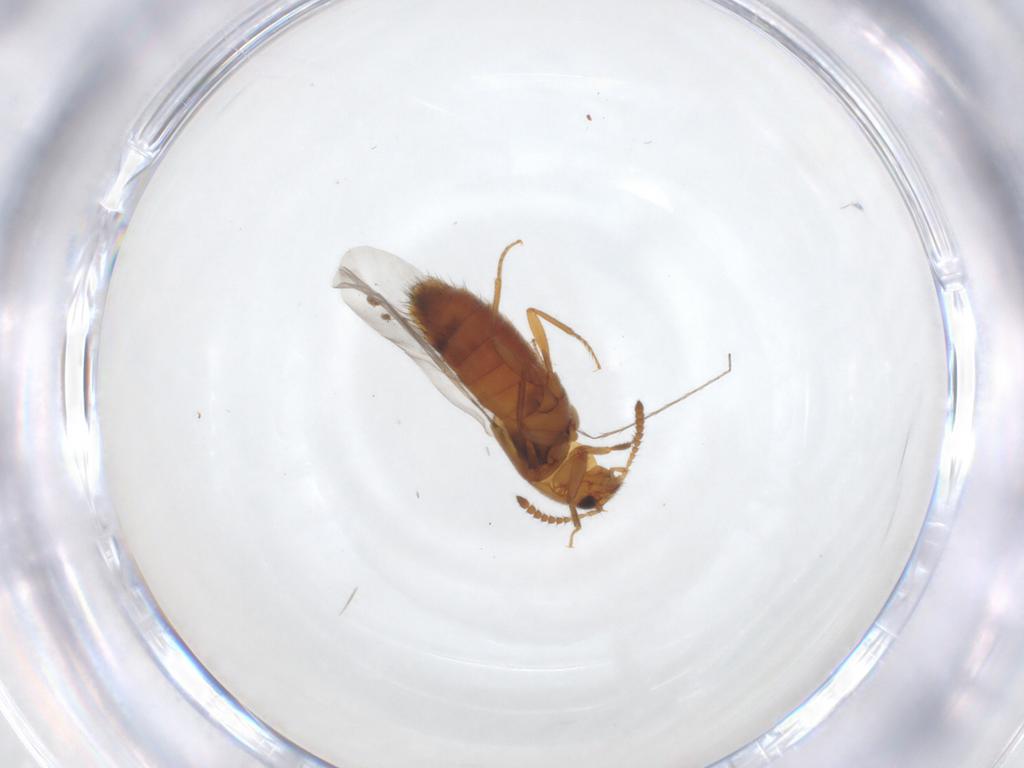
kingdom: Animalia
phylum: Arthropoda
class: Insecta
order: Coleoptera
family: Staphylinidae
